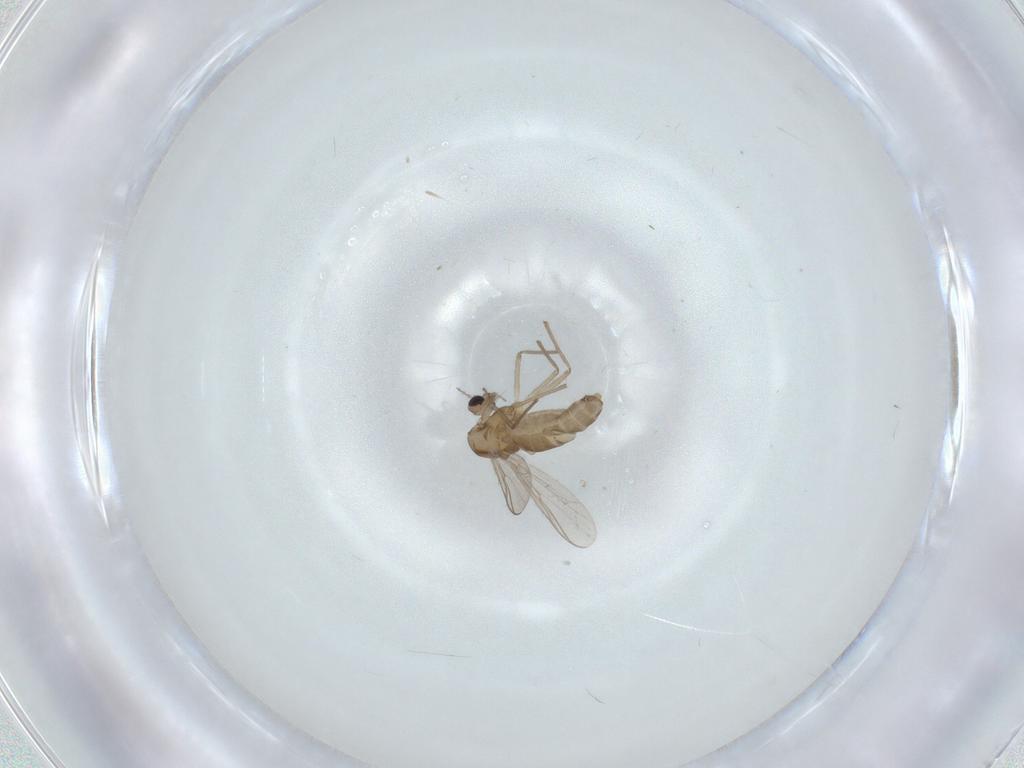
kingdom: Animalia
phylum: Arthropoda
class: Insecta
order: Diptera
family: Chironomidae
